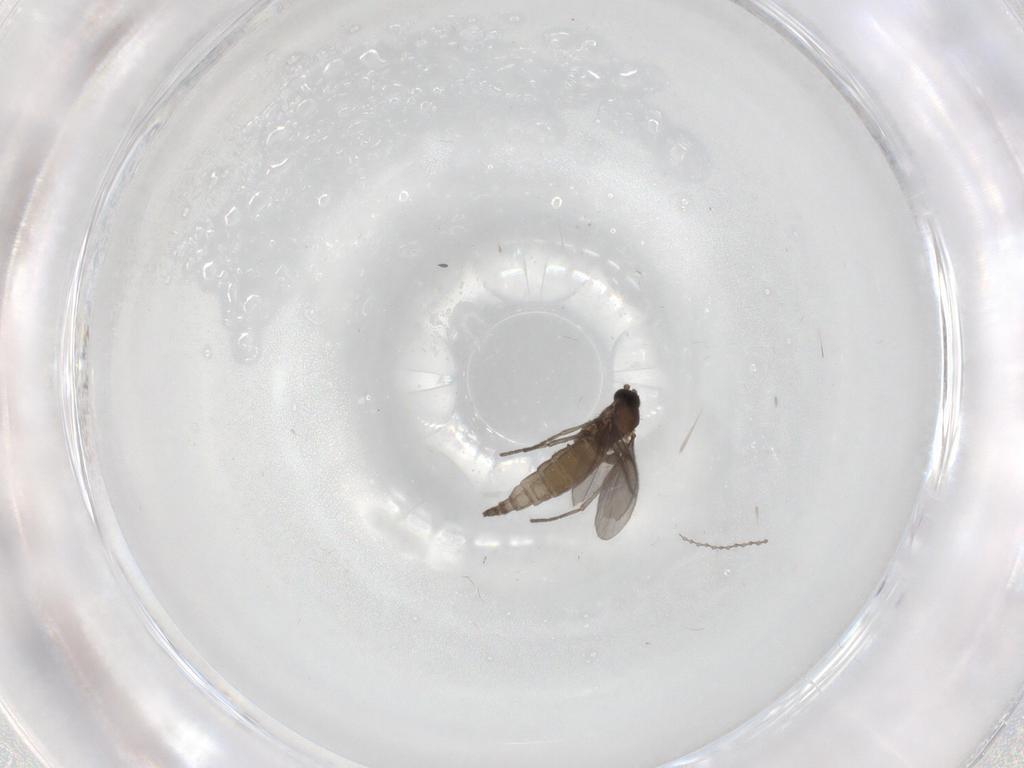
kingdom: Animalia
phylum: Arthropoda
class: Insecta
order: Diptera
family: Sciaridae
